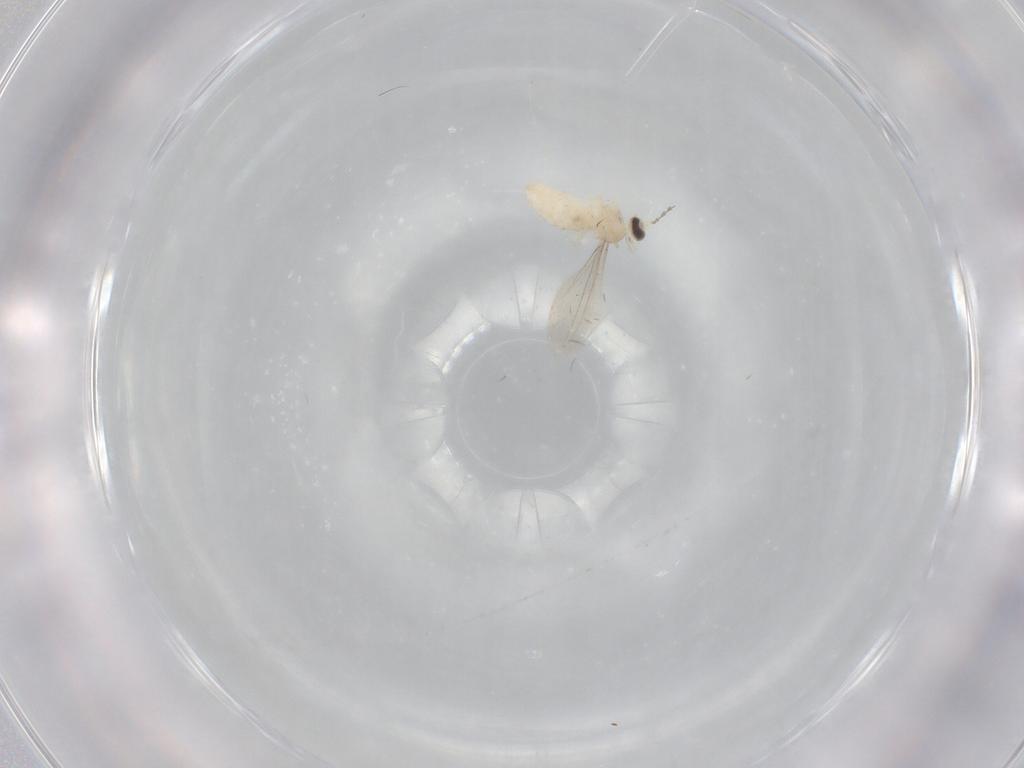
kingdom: Animalia
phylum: Arthropoda
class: Insecta
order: Diptera
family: Cecidomyiidae
